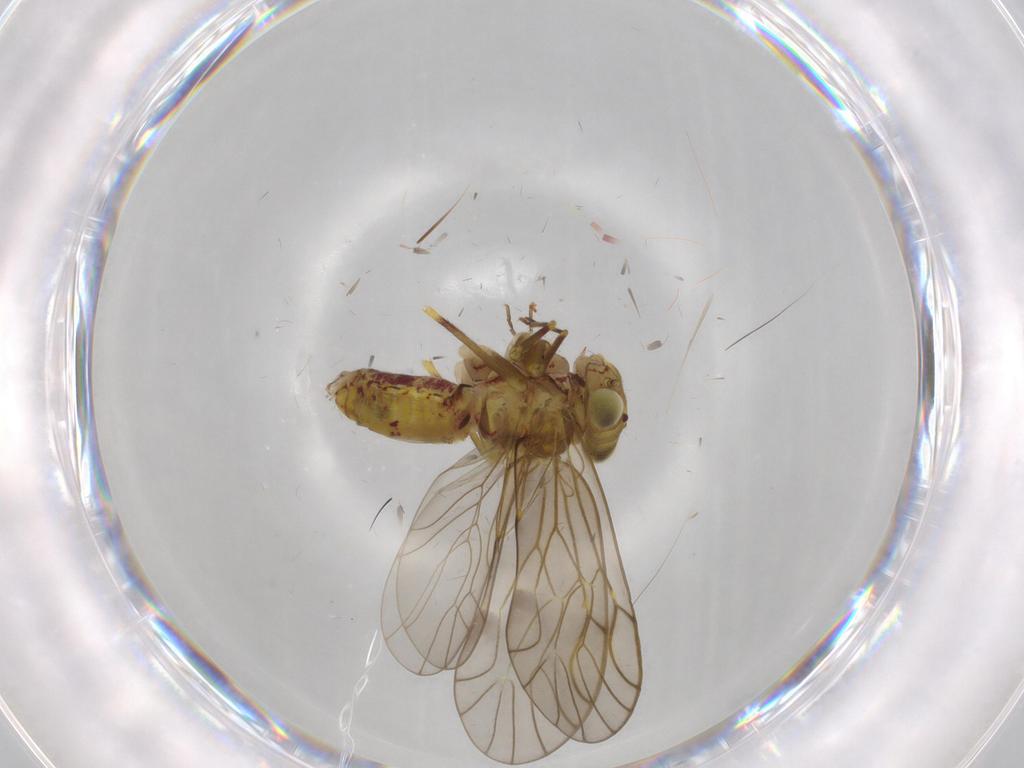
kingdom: Animalia
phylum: Arthropoda
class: Insecta
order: Psocodea
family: Philotarsidae
